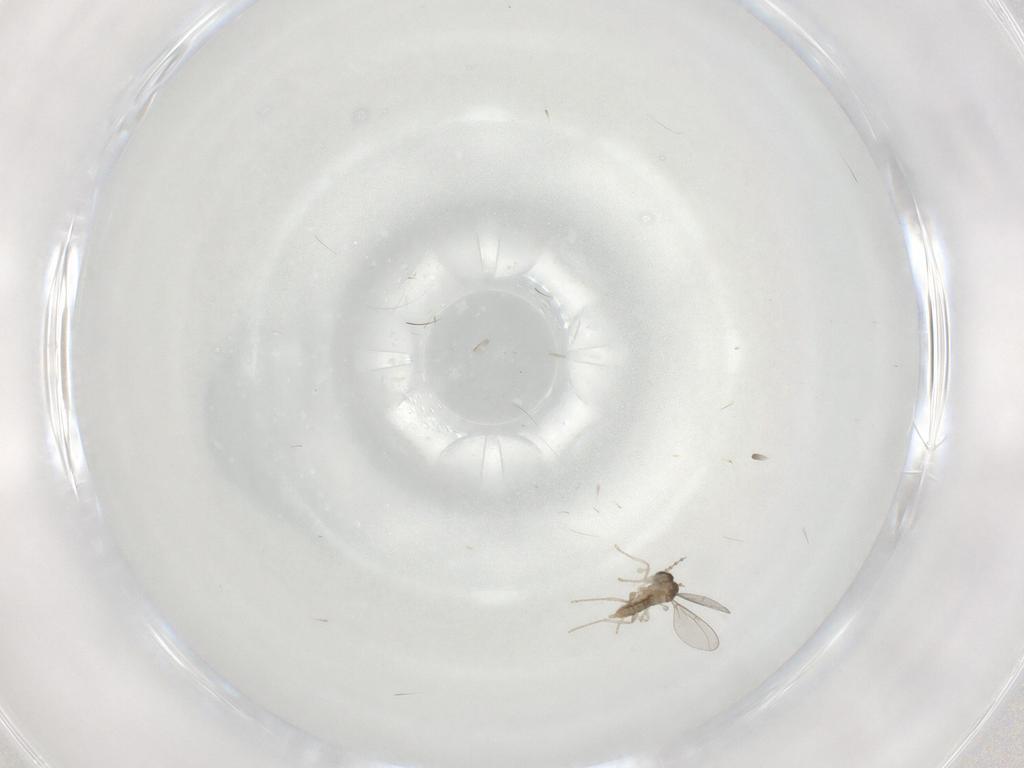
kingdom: Animalia
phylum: Arthropoda
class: Insecta
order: Diptera
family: Cecidomyiidae
